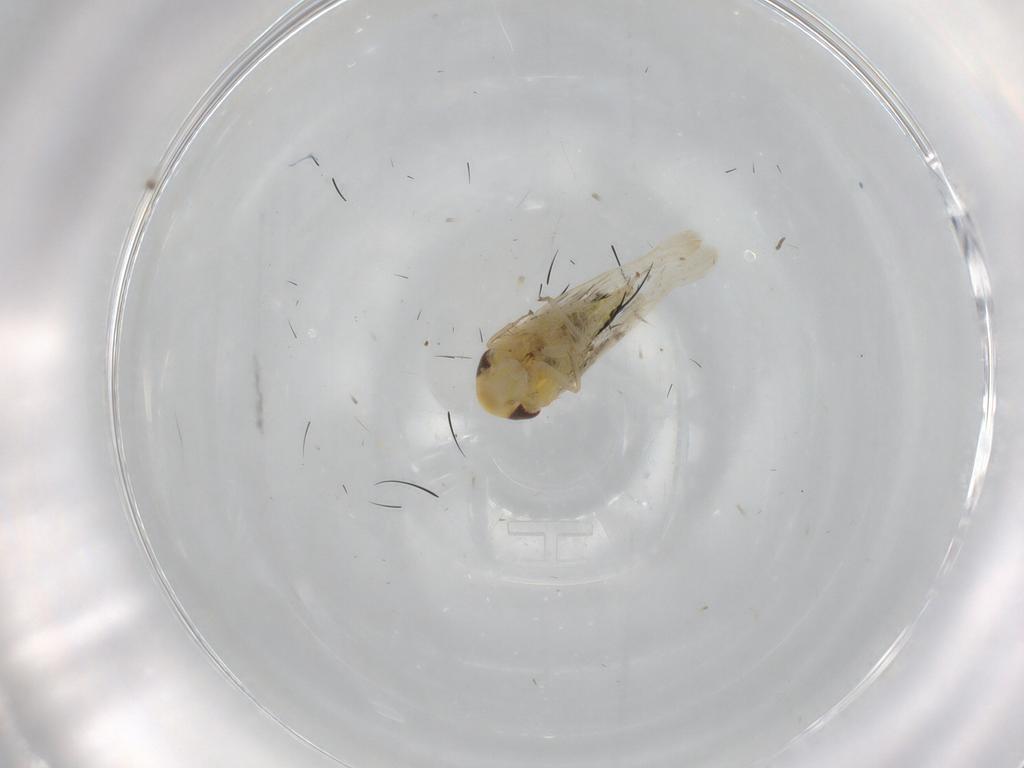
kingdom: Animalia
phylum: Arthropoda
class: Insecta
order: Hemiptera
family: Cicadellidae
